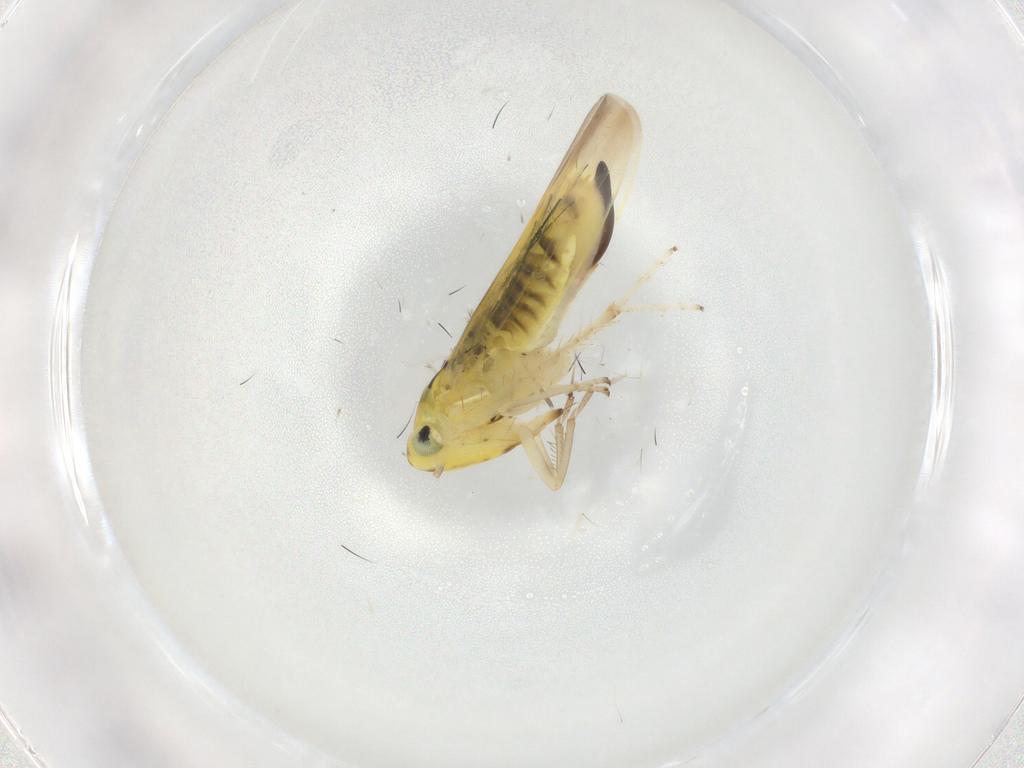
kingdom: Animalia
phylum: Arthropoda
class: Insecta
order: Hemiptera
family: Cicadellidae
